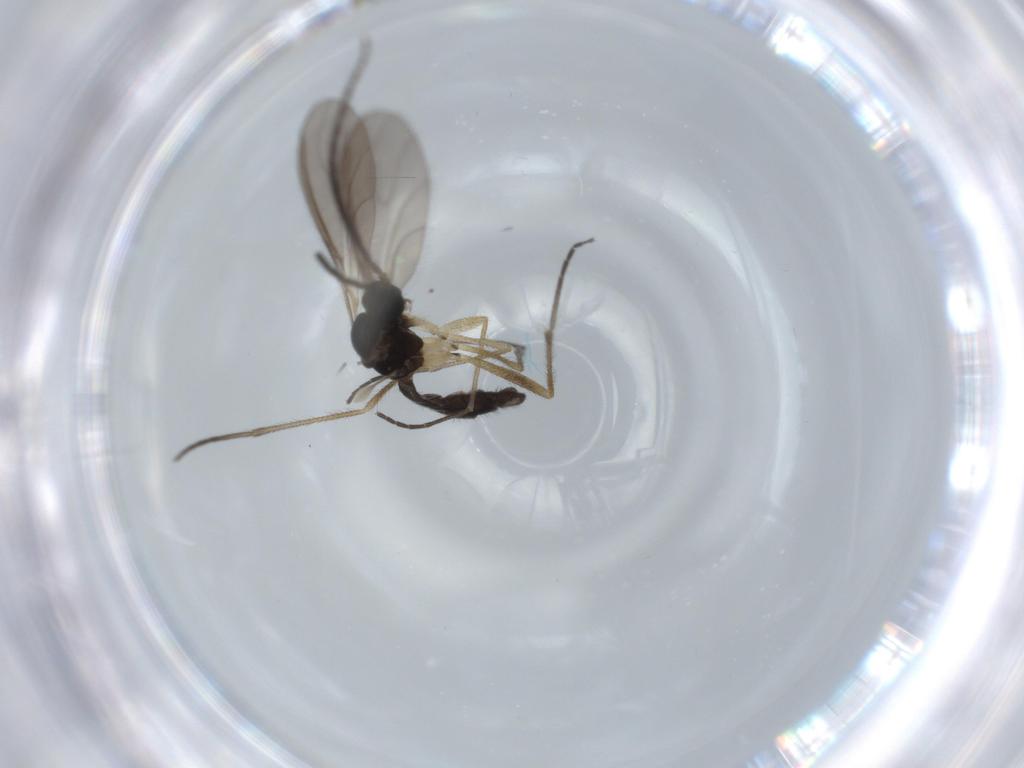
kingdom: Animalia
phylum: Arthropoda
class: Insecta
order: Diptera
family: Sciaridae
